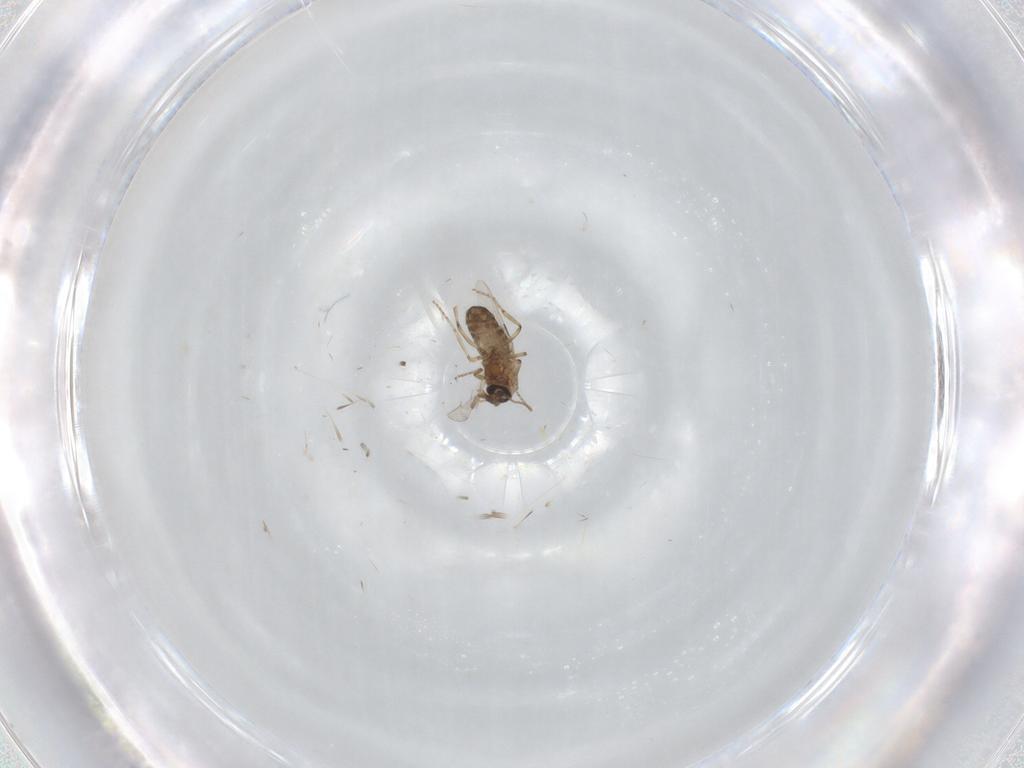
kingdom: Animalia
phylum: Arthropoda
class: Insecta
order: Diptera
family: Ceratopogonidae
